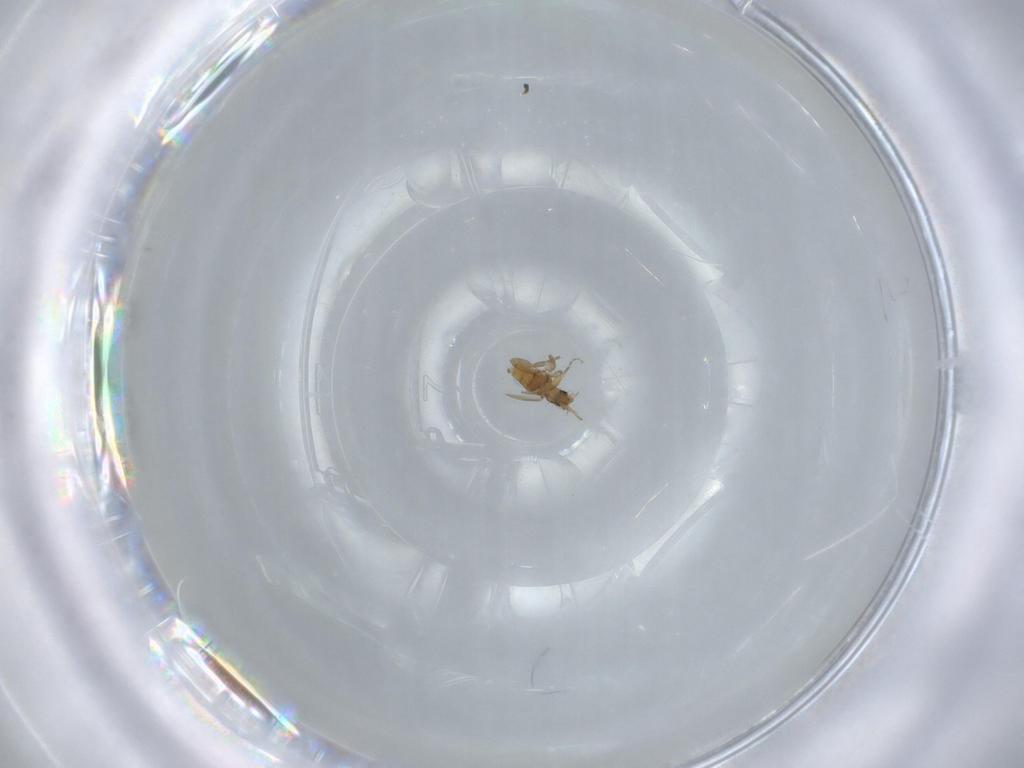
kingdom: Animalia
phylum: Arthropoda
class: Insecta
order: Diptera
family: Phoridae
